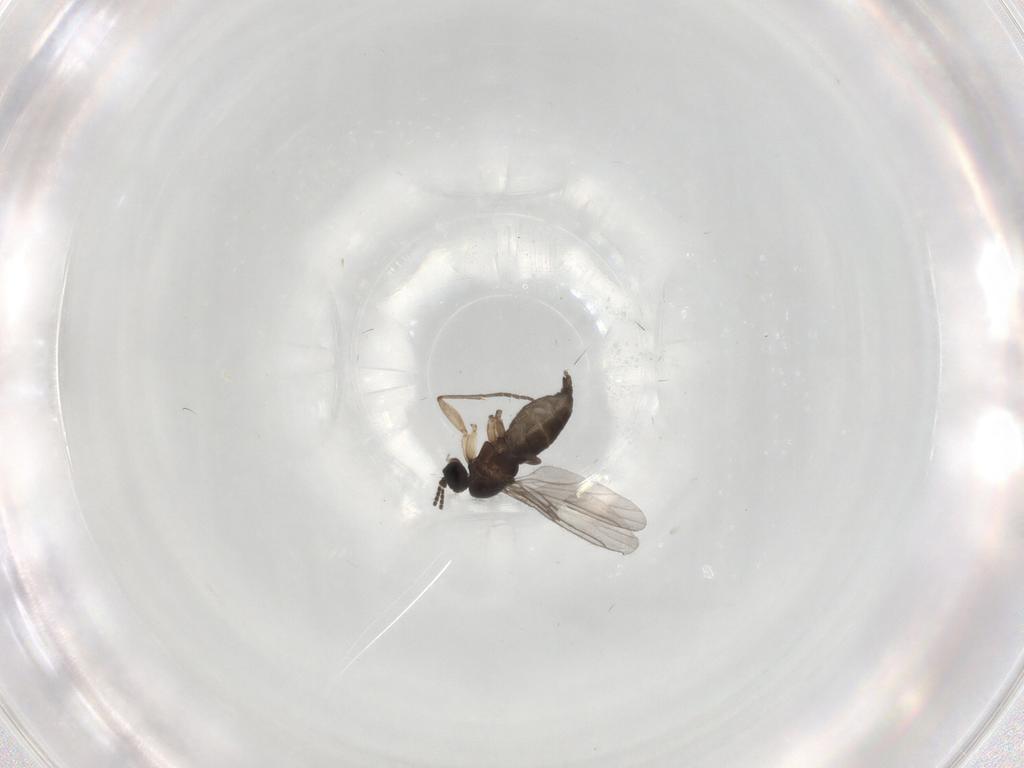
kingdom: Animalia
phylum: Arthropoda
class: Insecta
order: Diptera
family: Sciaridae
